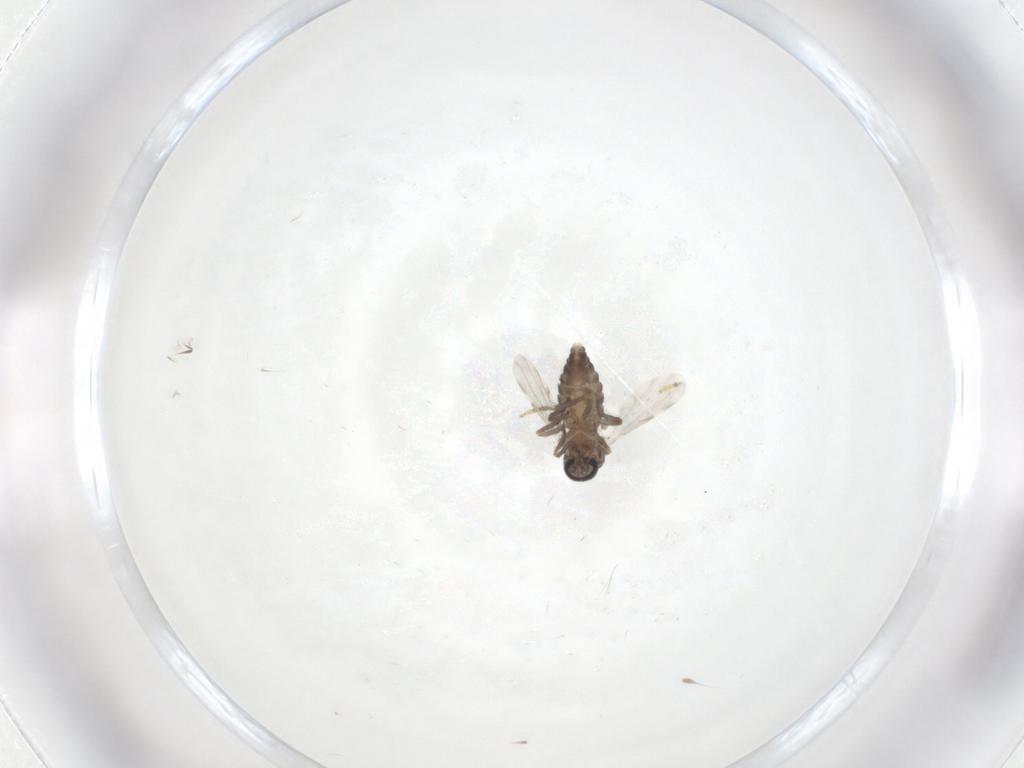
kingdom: Animalia
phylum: Arthropoda
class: Insecta
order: Diptera
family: Ceratopogonidae
